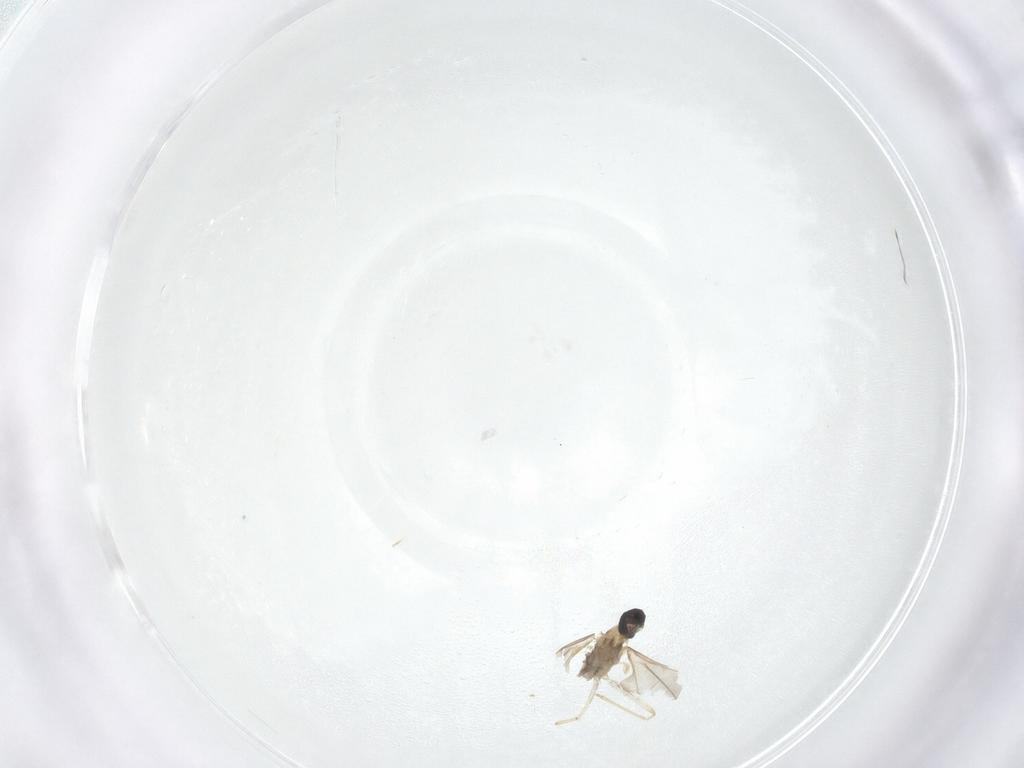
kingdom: Animalia
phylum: Arthropoda
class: Insecta
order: Diptera
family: Cecidomyiidae
